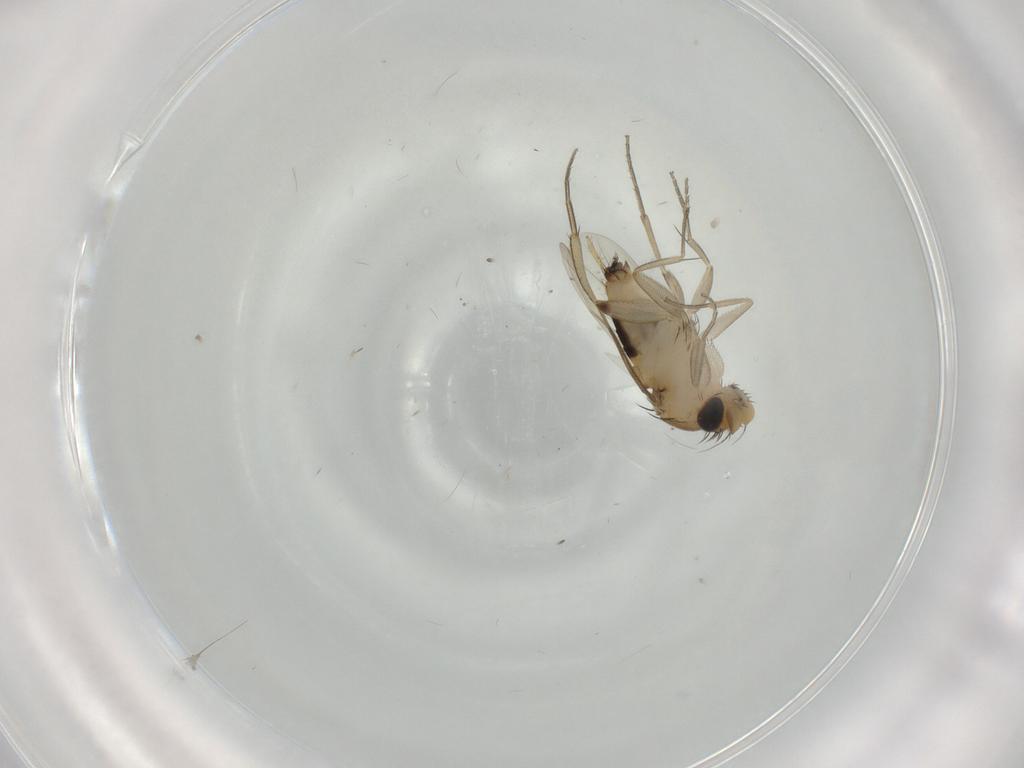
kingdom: Animalia
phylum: Arthropoda
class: Insecta
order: Diptera
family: Phoridae
